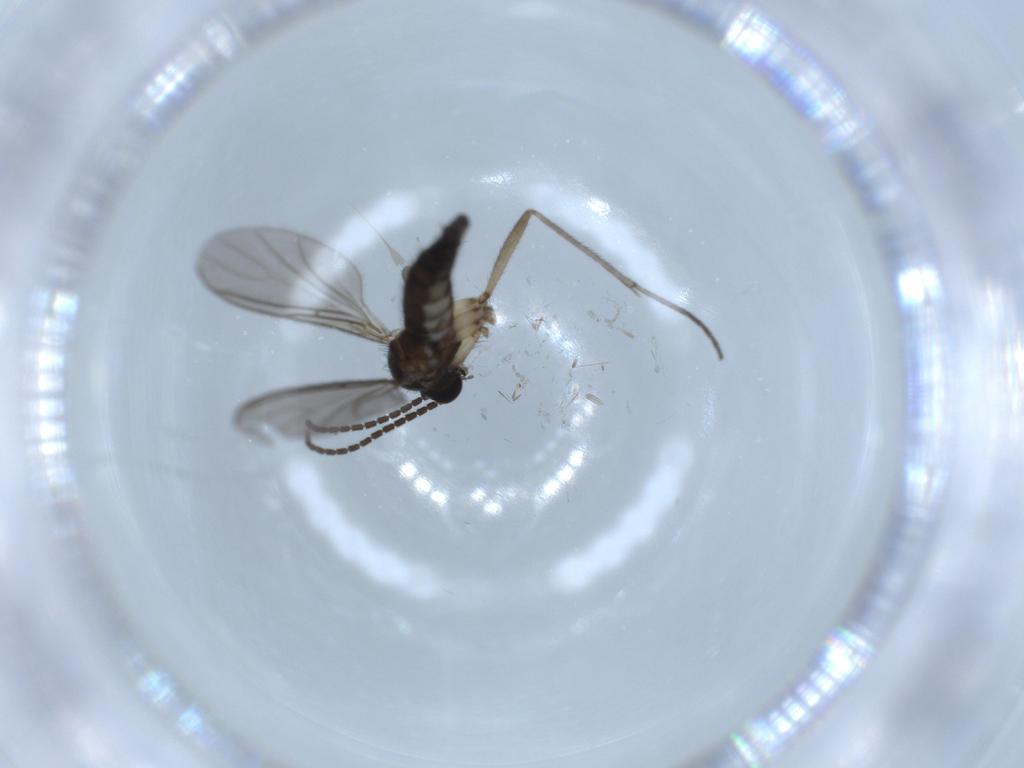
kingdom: Animalia
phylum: Arthropoda
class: Insecta
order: Diptera
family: Sciaridae
